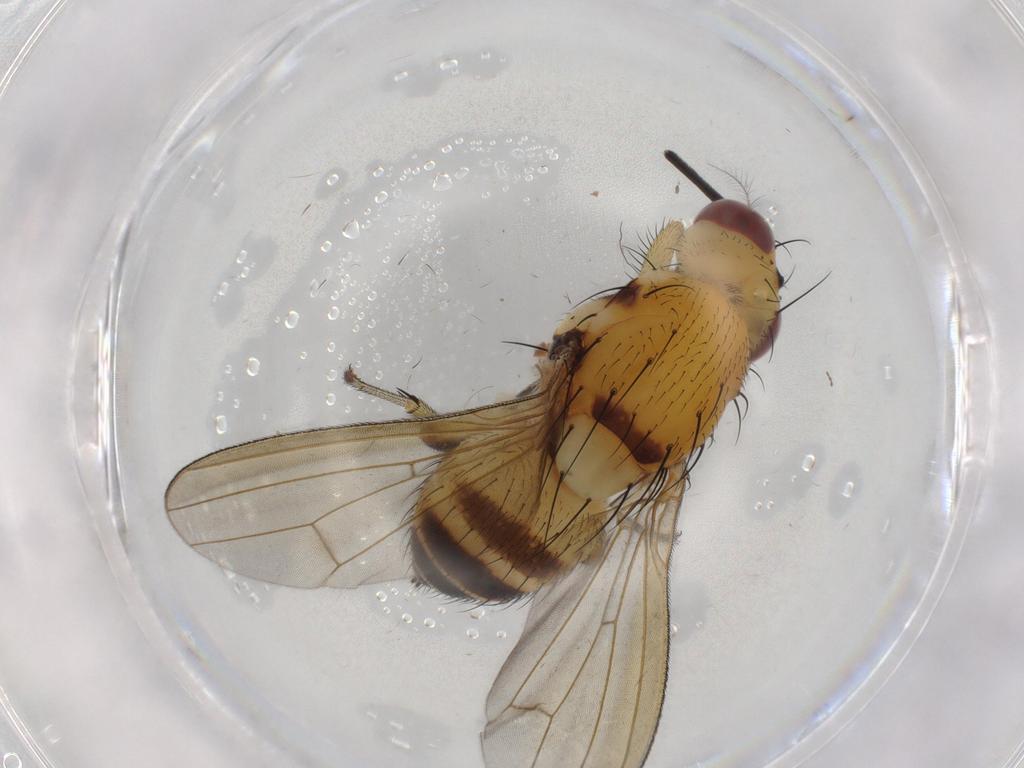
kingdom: Animalia
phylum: Arthropoda
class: Insecta
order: Diptera
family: Lauxaniidae
